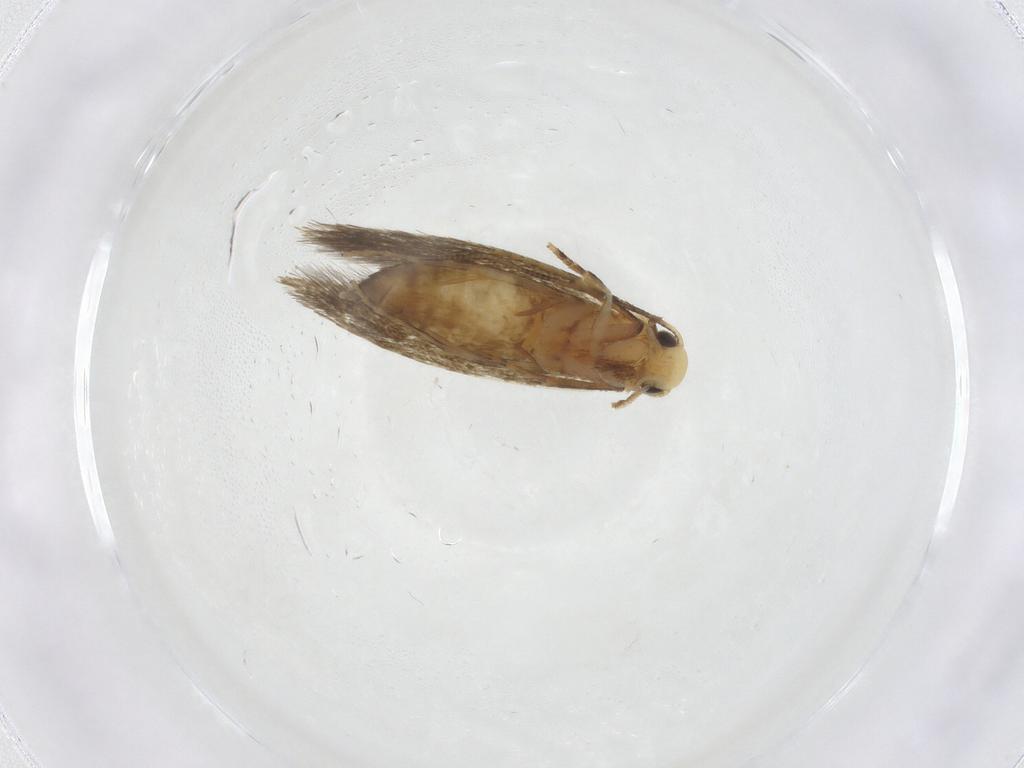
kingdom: Animalia
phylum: Arthropoda
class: Insecta
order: Lepidoptera
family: Tineidae
